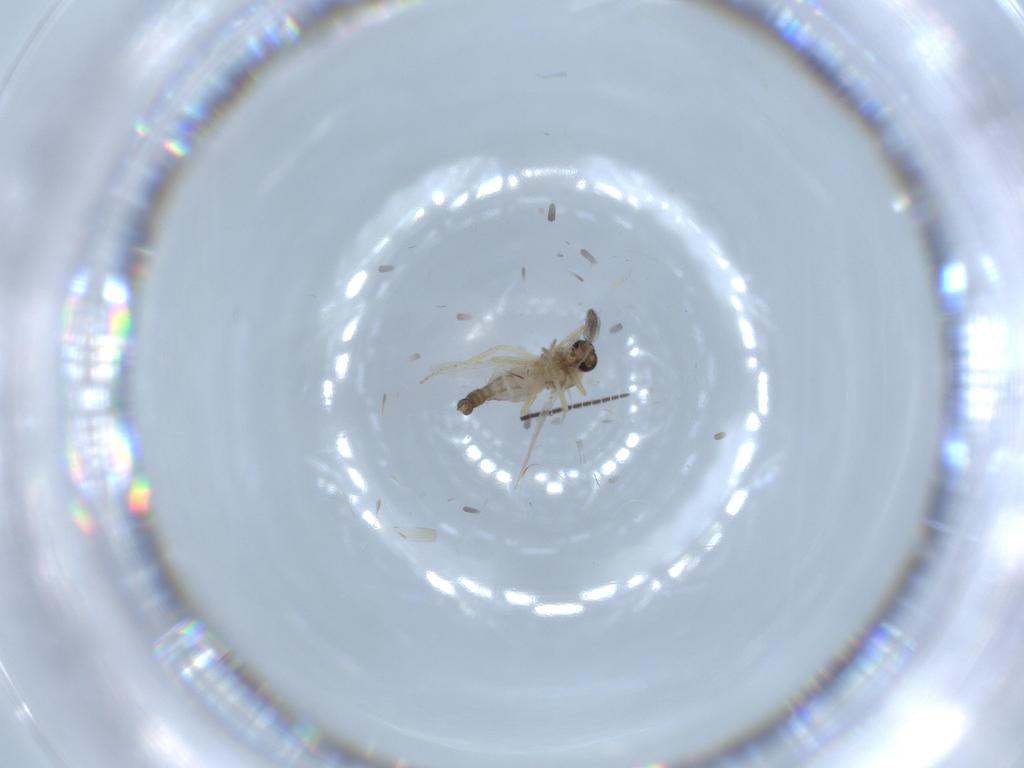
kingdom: Animalia
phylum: Arthropoda
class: Insecta
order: Diptera
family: Ceratopogonidae
